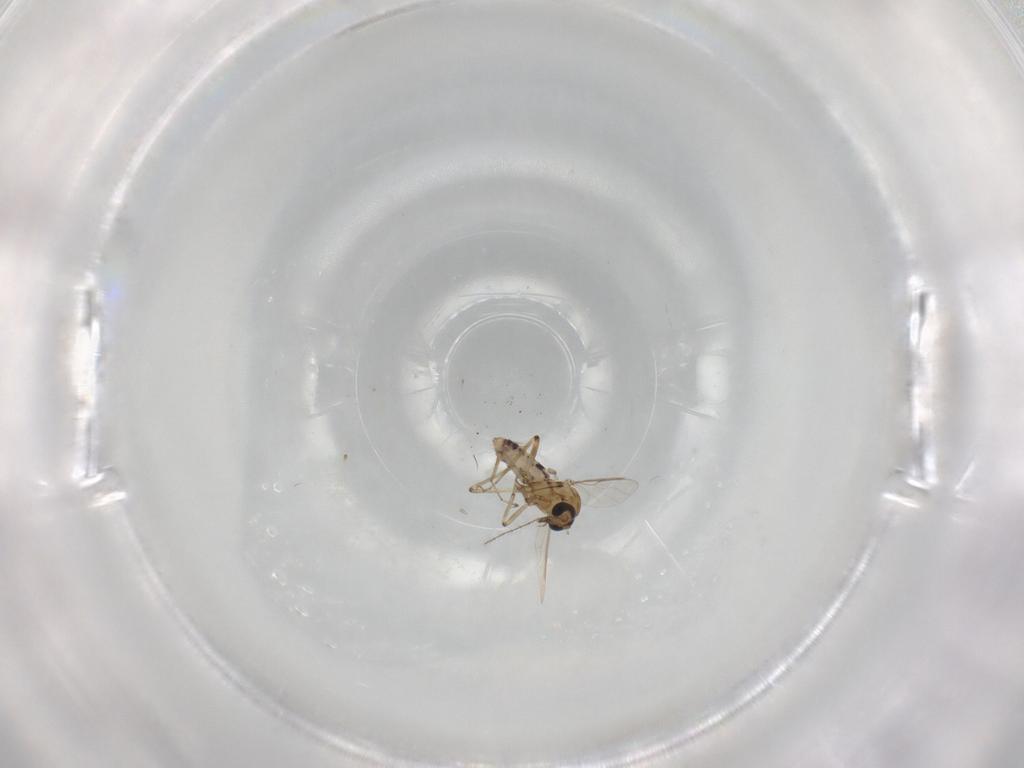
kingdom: Animalia
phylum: Arthropoda
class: Insecta
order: Diptera
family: Ceratopogonidae
